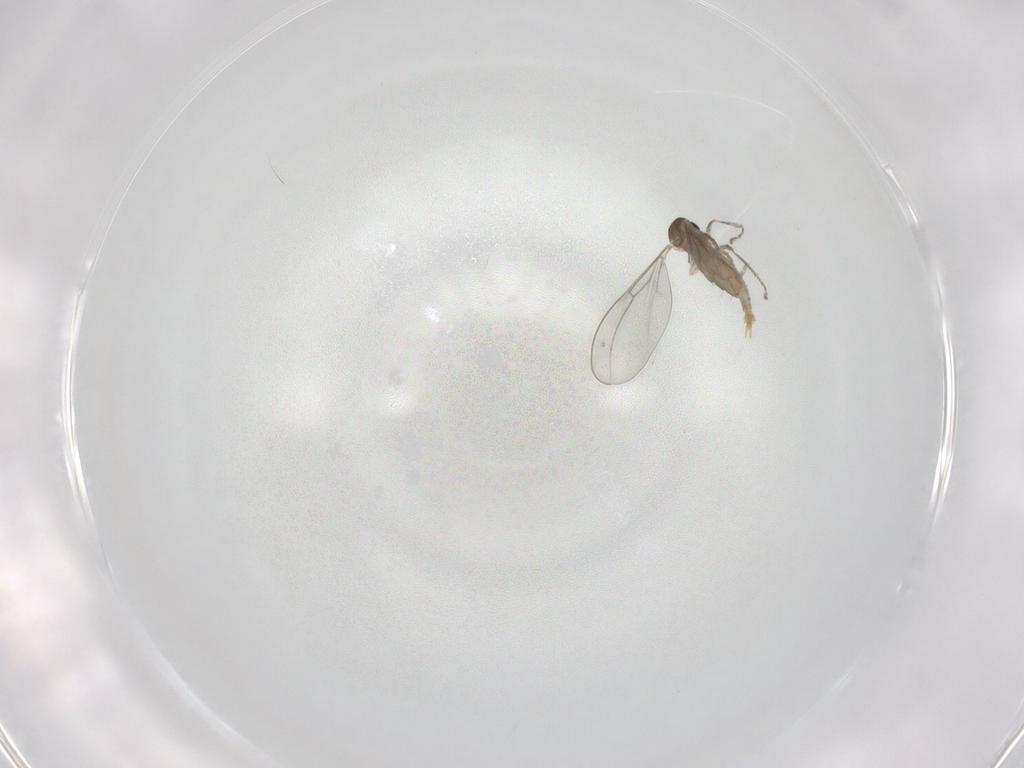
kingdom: Animalia
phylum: Arthropoda
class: Insecta
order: Diptera
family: Cecidomyiidae
